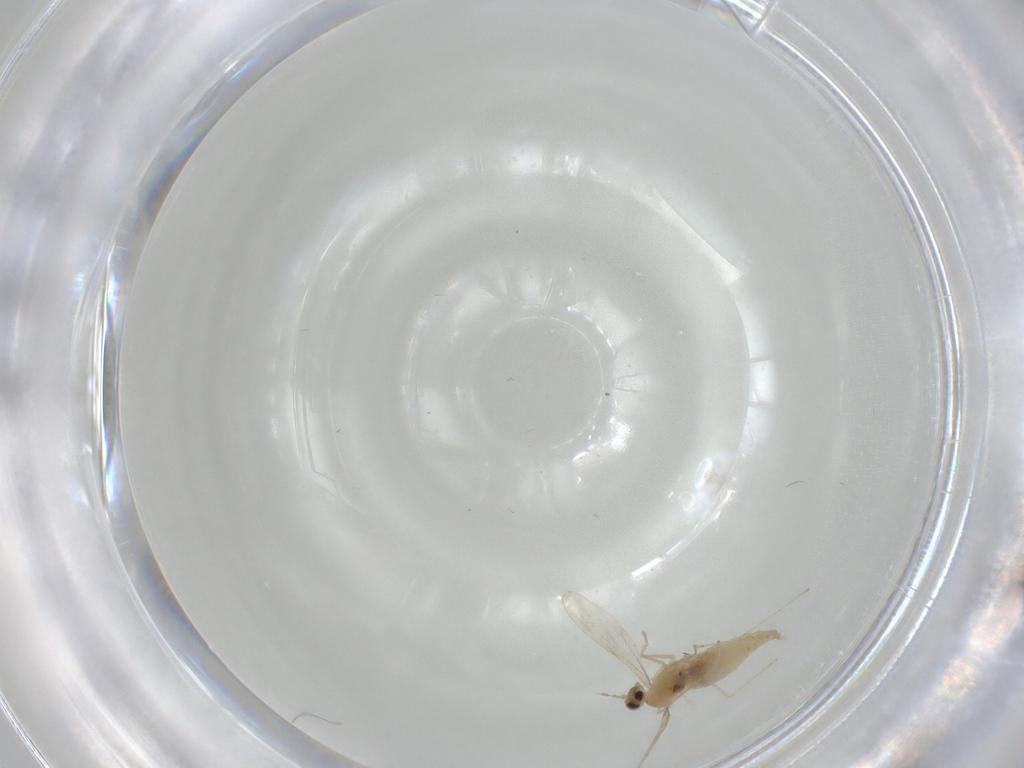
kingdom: Animalia
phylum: Arthropoda
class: Insecta
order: Diptera
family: Cecidomyiidae
